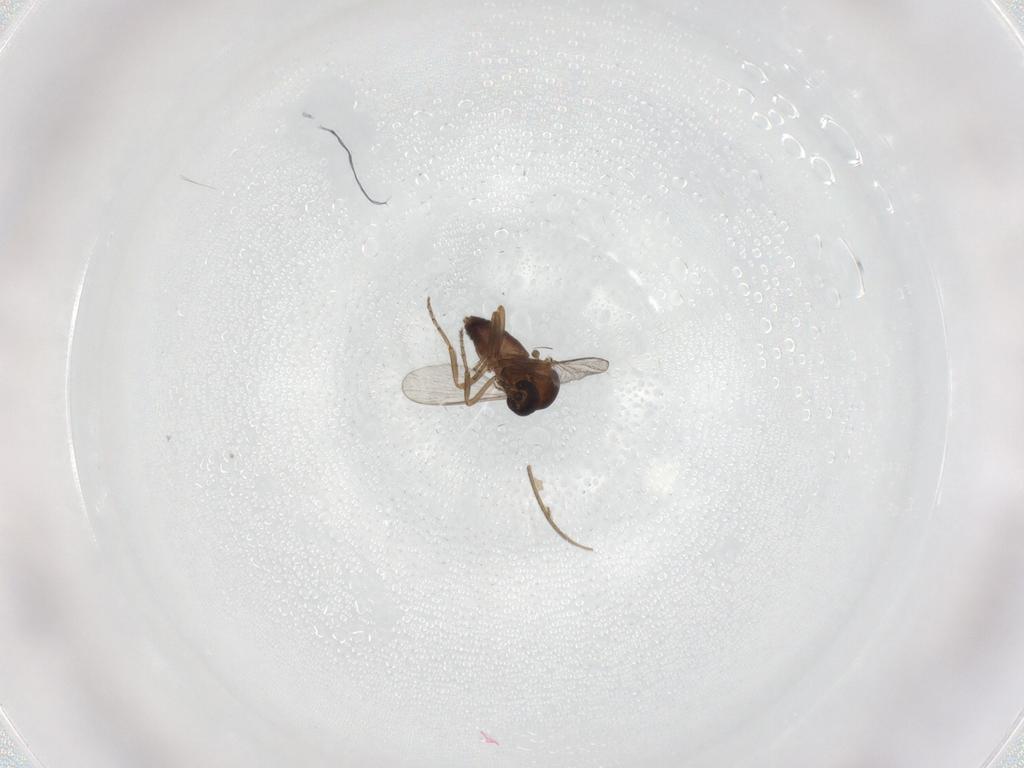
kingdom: Animalia
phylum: Arthropoda
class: Insecta
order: Diptera
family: Drosophilidae
